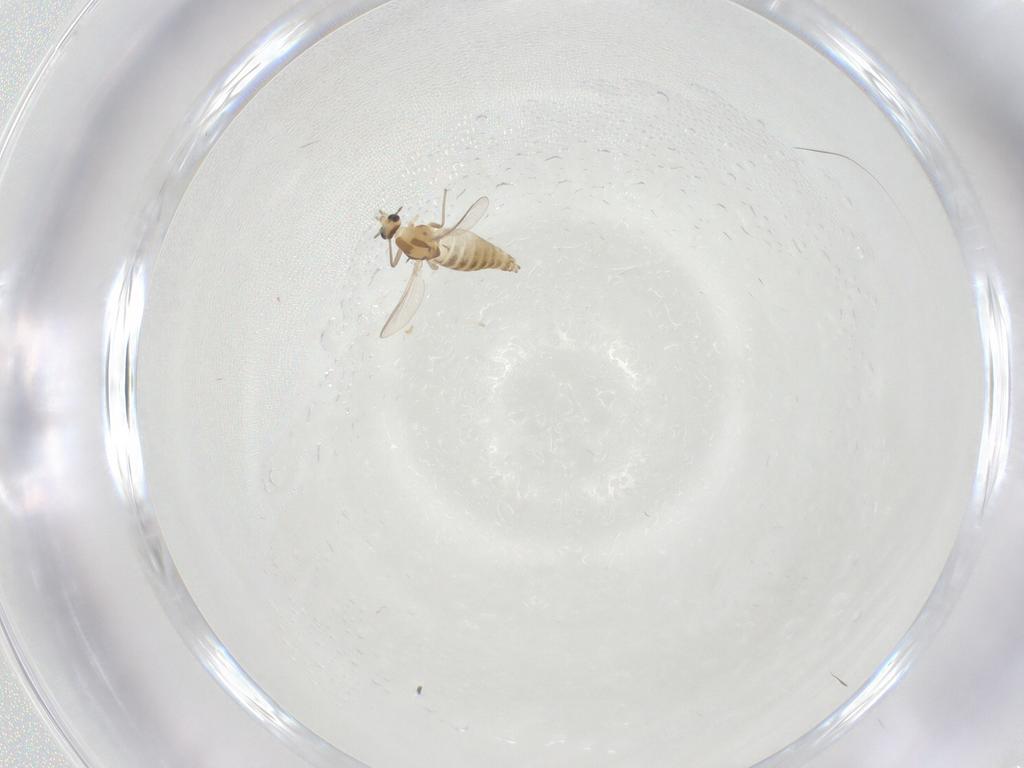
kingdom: Animalia
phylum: Arthropoda
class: Insecta
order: Diptera
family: Chironomidae
